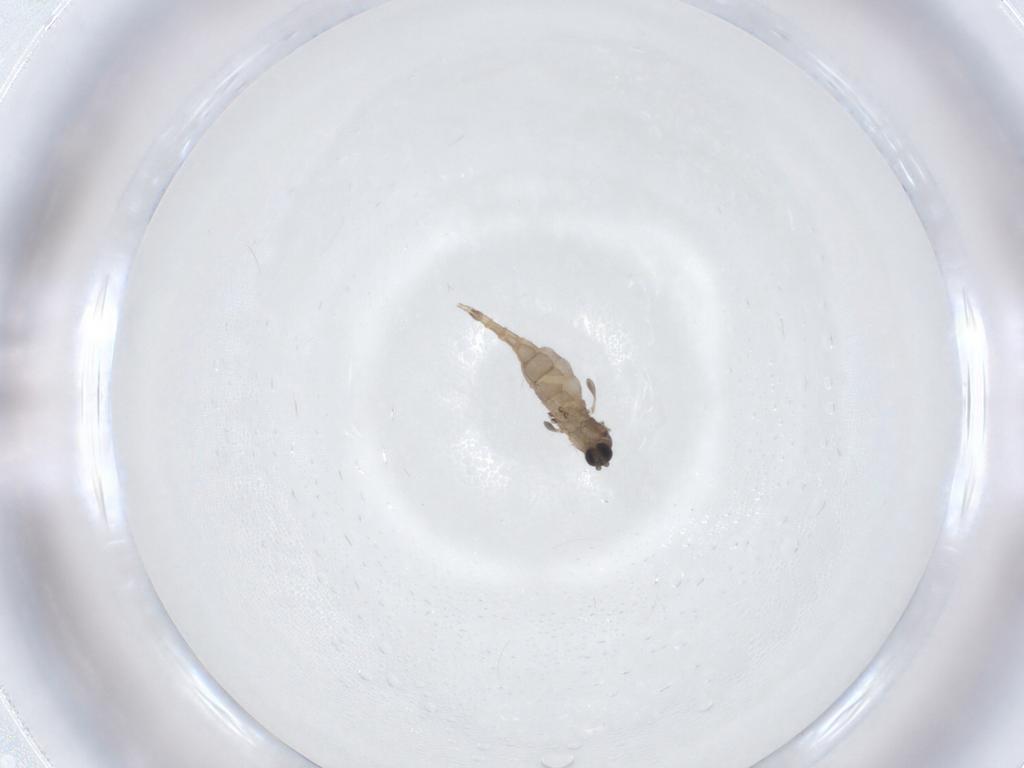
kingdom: Animalia
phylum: Arthropoda
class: Insecta
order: Diptera
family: Sciaridae
